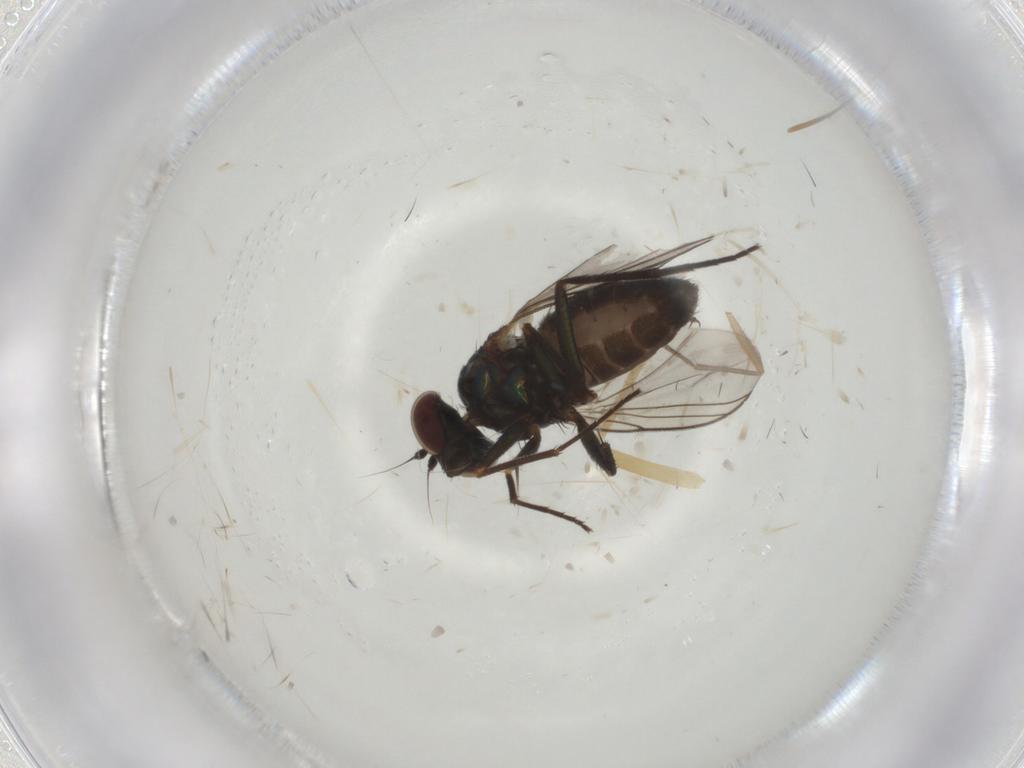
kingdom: Animalia
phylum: Arthropoda
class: Insecta
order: Diptera
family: Dolichopodidae
